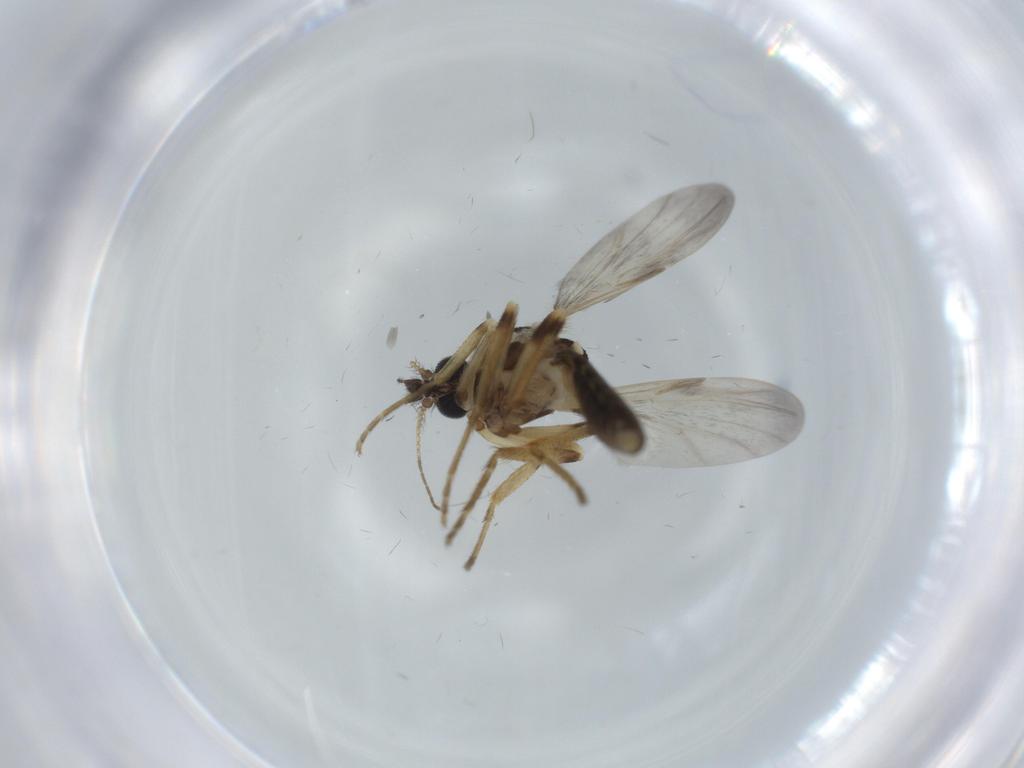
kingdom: Animalia
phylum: Arthropoda
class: Insecta
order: Diptera
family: Ceratopogonidae
